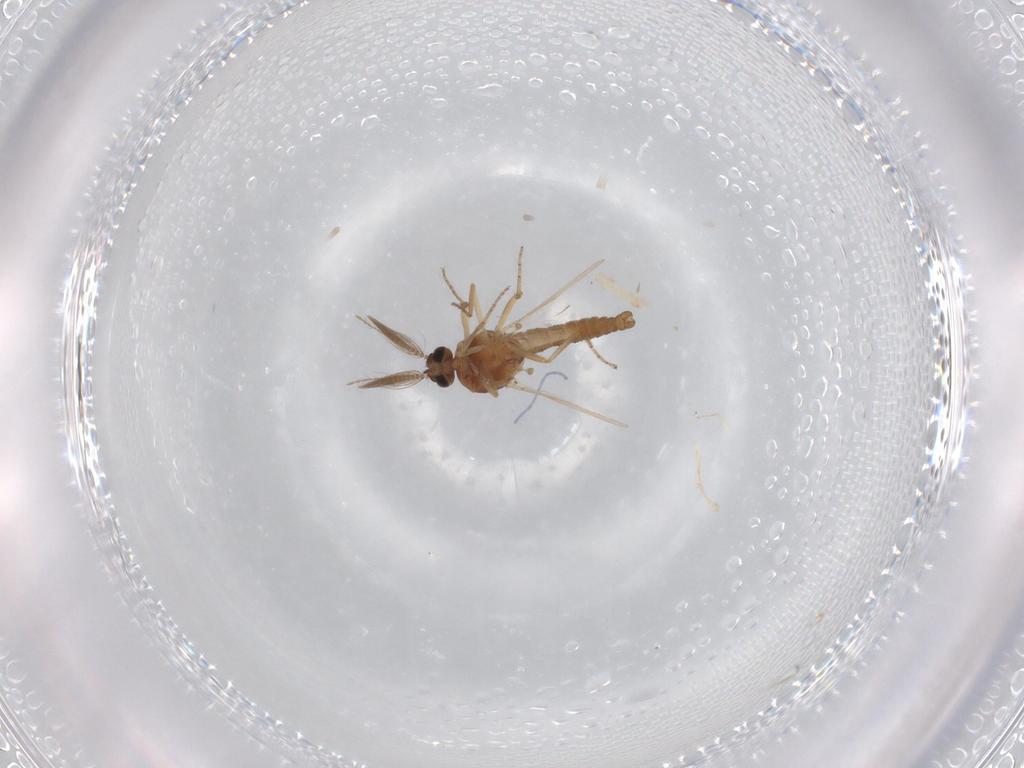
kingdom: Animalia
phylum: Arthropoda
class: Insecta
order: Diptera
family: Ceratopogonidae
